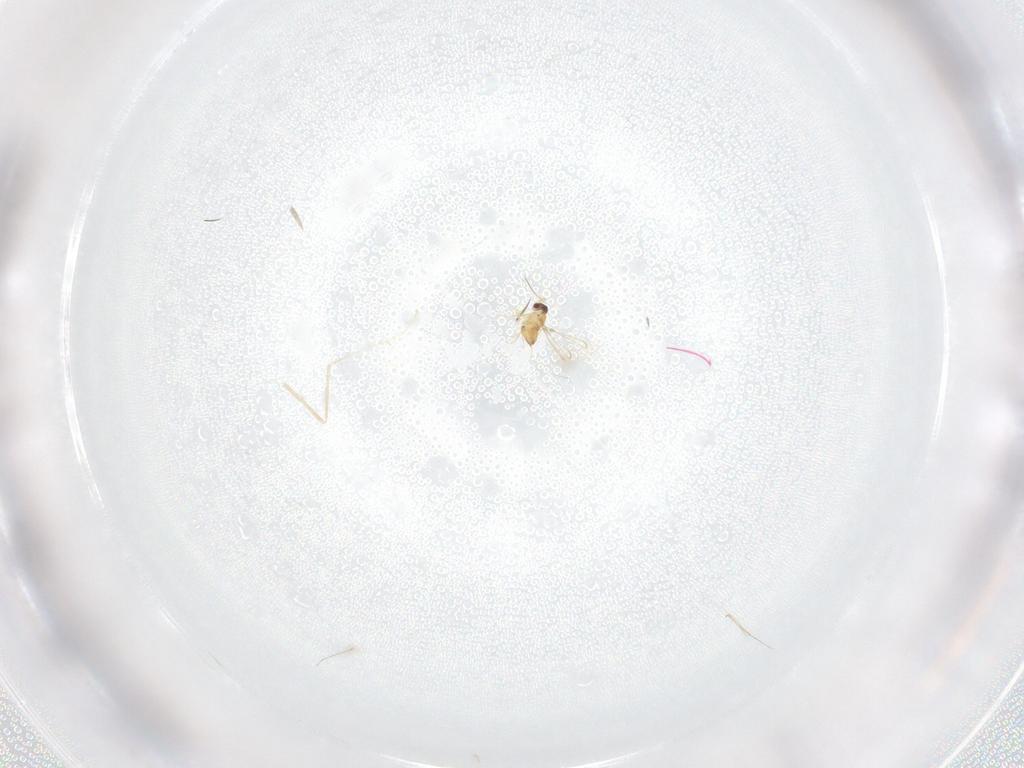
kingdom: Animalia
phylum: Arthropoda
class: Insecta
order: Hymenoptera
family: Mymaridae
